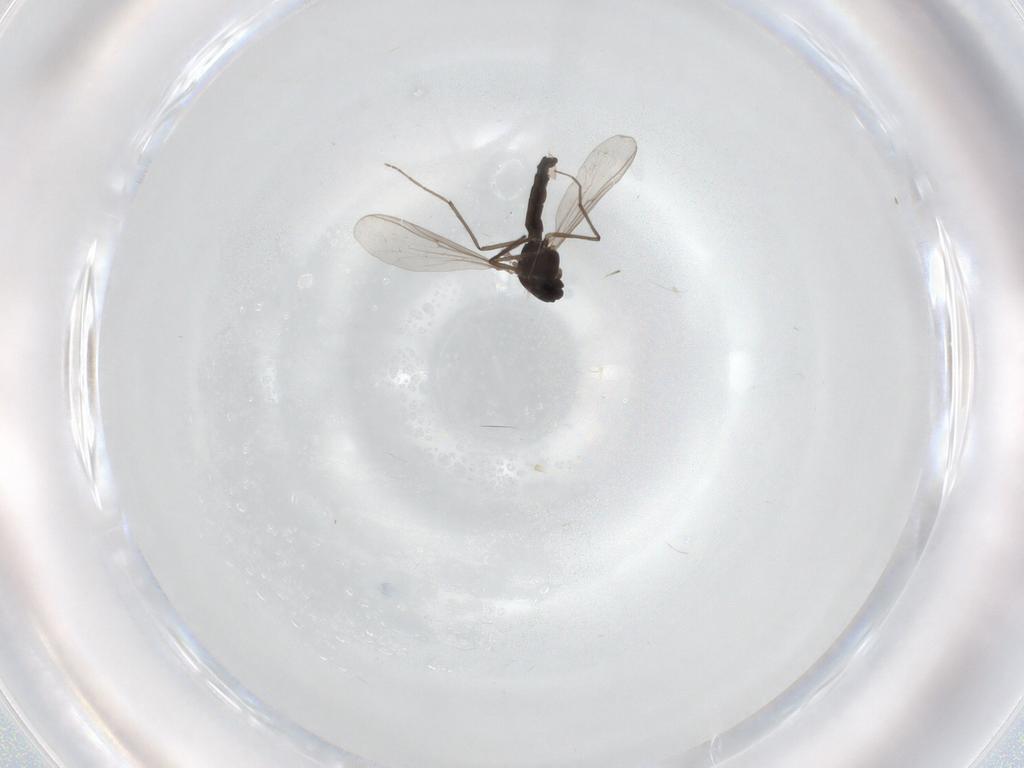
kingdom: Animalia
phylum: Arthropoda
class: Insecta
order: Diptera
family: Chironomidae
